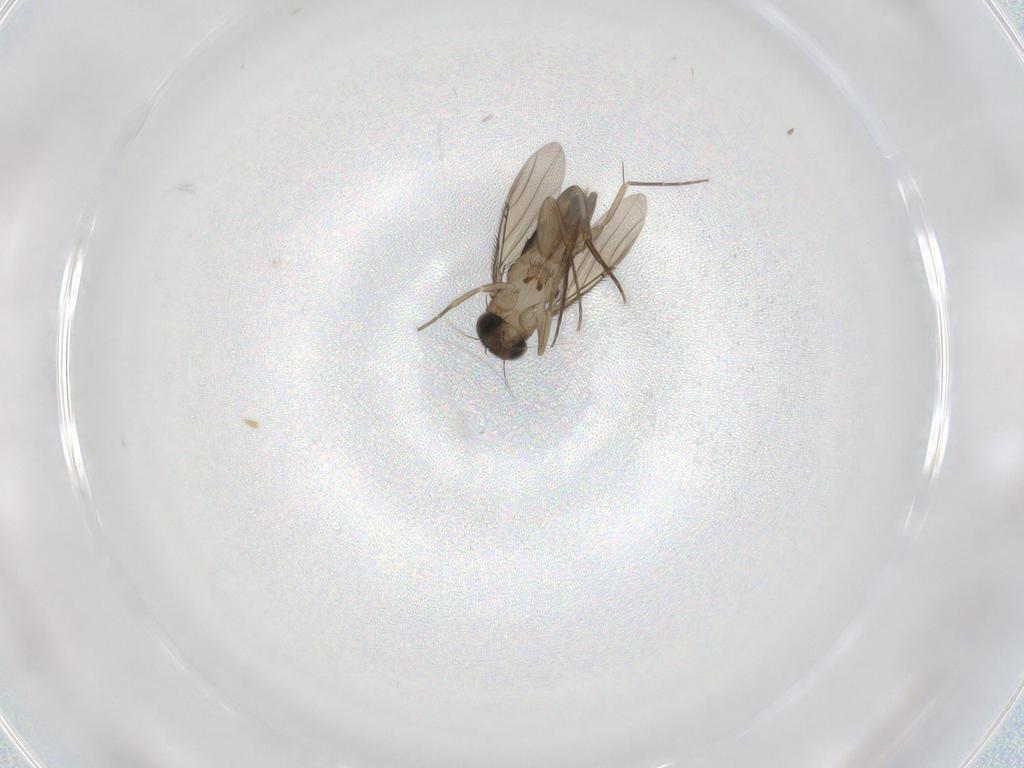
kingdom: Animalia
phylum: Arthropoda
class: Insecta
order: Diptera
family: Phoridae
